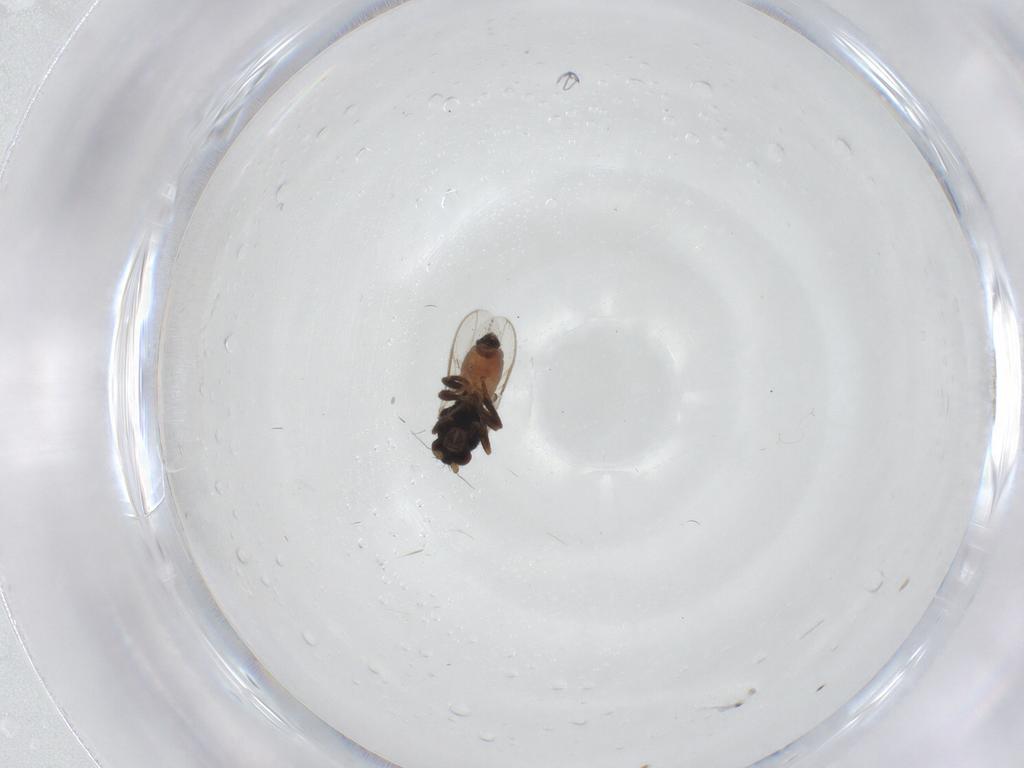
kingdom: Animalia
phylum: Arthropoda
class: Insecta
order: Diptera
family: Sphaeroceridae
